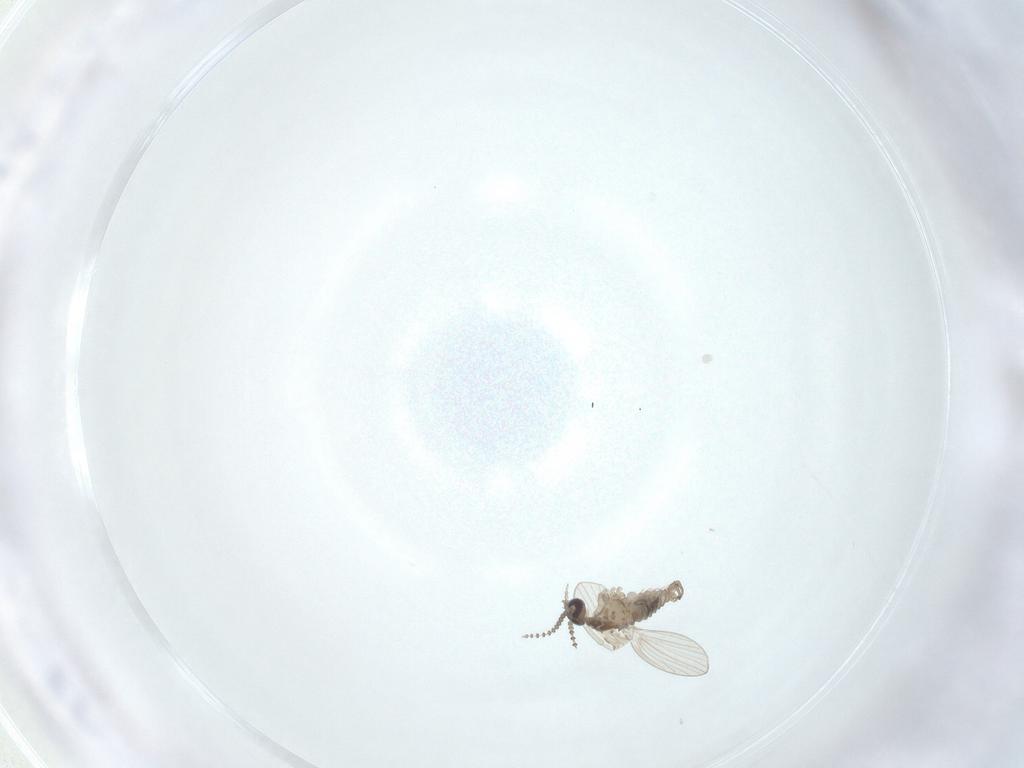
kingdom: Animalia
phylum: Arthropoda
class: Insecta
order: Diptera
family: Psychodidae
